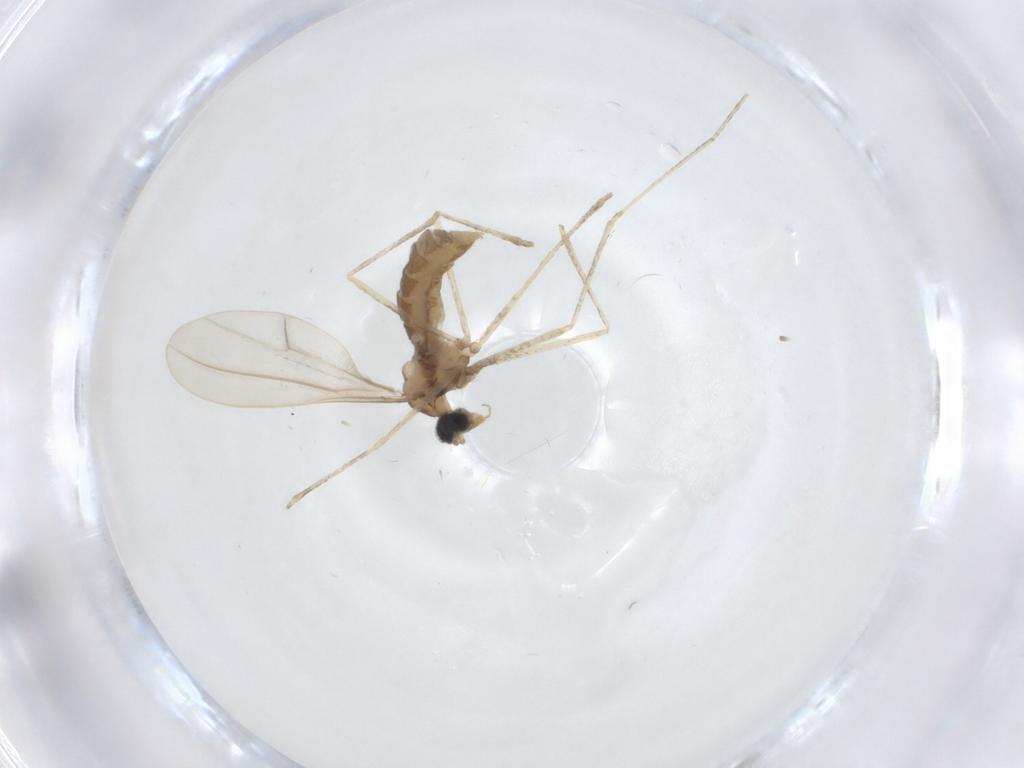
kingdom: Animalia
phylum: Arthropoda
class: Insecta
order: Diptera
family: Cecidomyiidae
